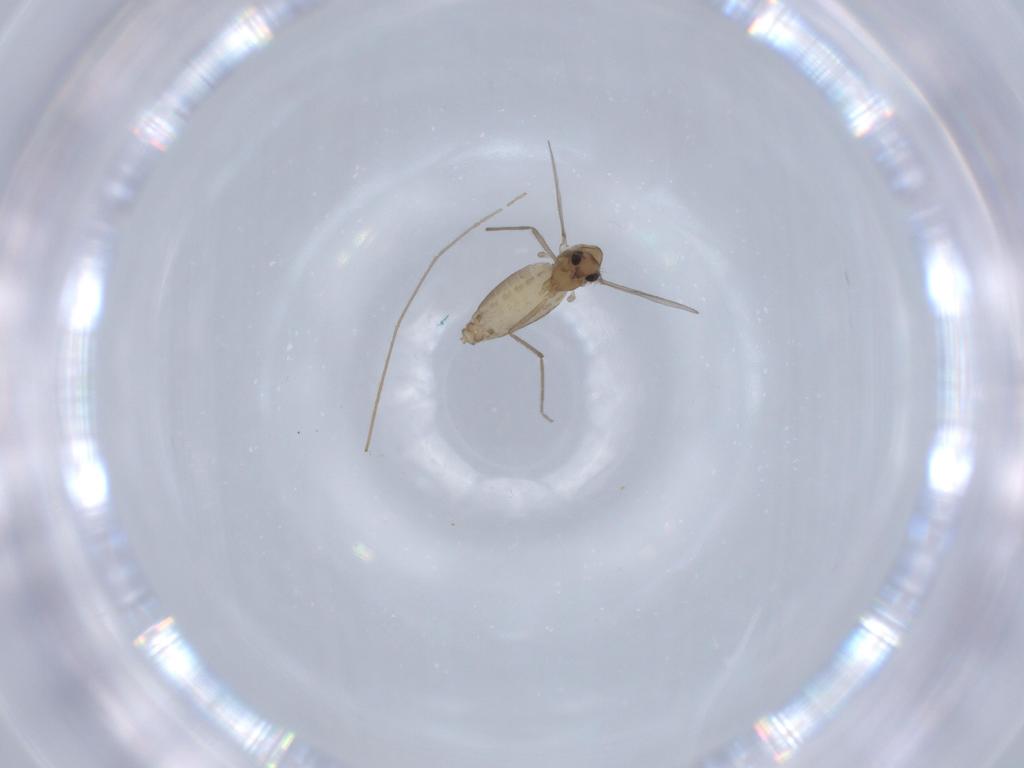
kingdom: Animalia
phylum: Arthropoda
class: Insecta
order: Diptera
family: Chironomidae
